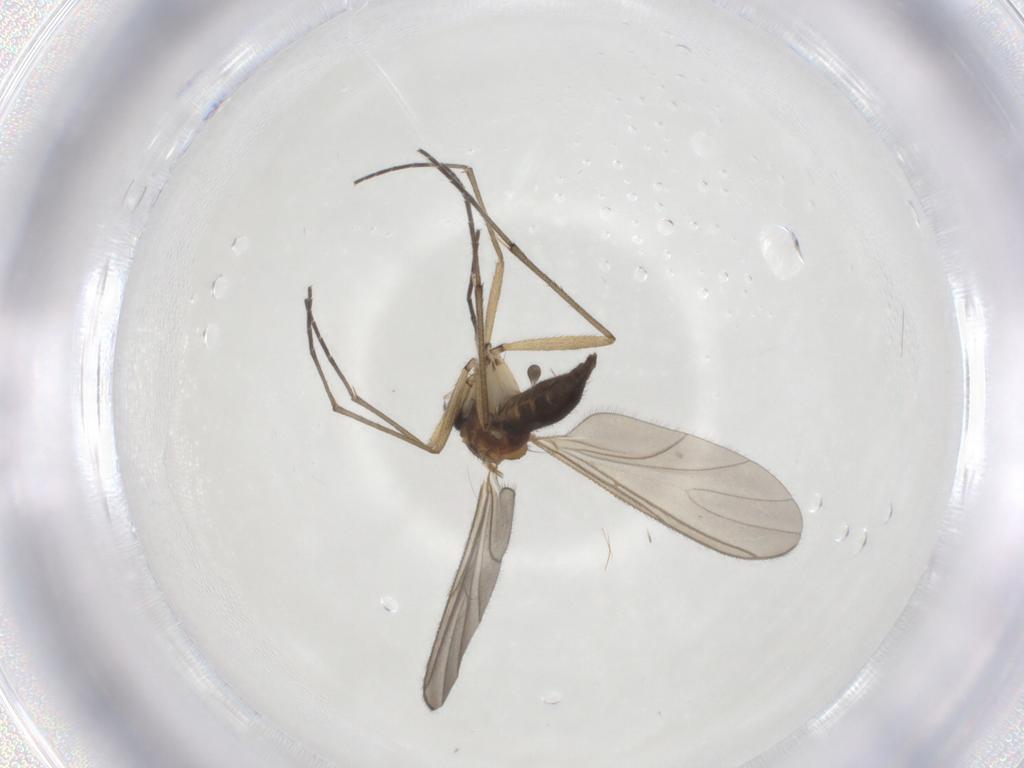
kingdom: Animalia
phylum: Arthropoda
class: Insecta
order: Diptera
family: Sciaridae
